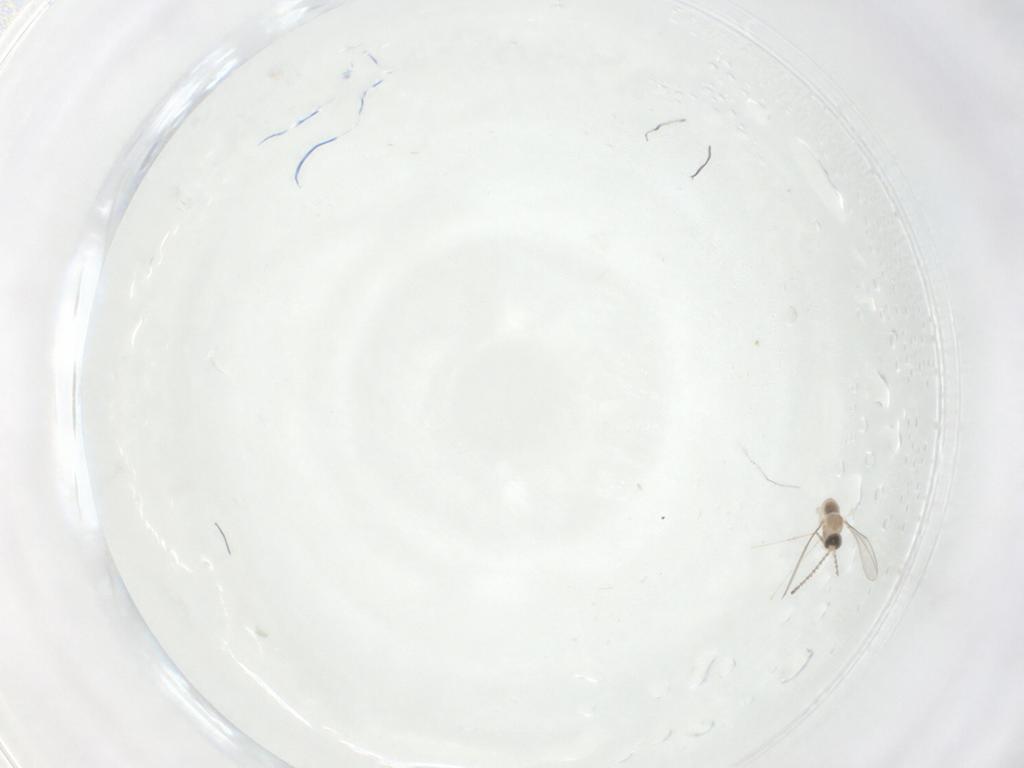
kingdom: Animalia
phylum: Arthropoda
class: Insecta
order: Diptera
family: Cecidomyiidae
